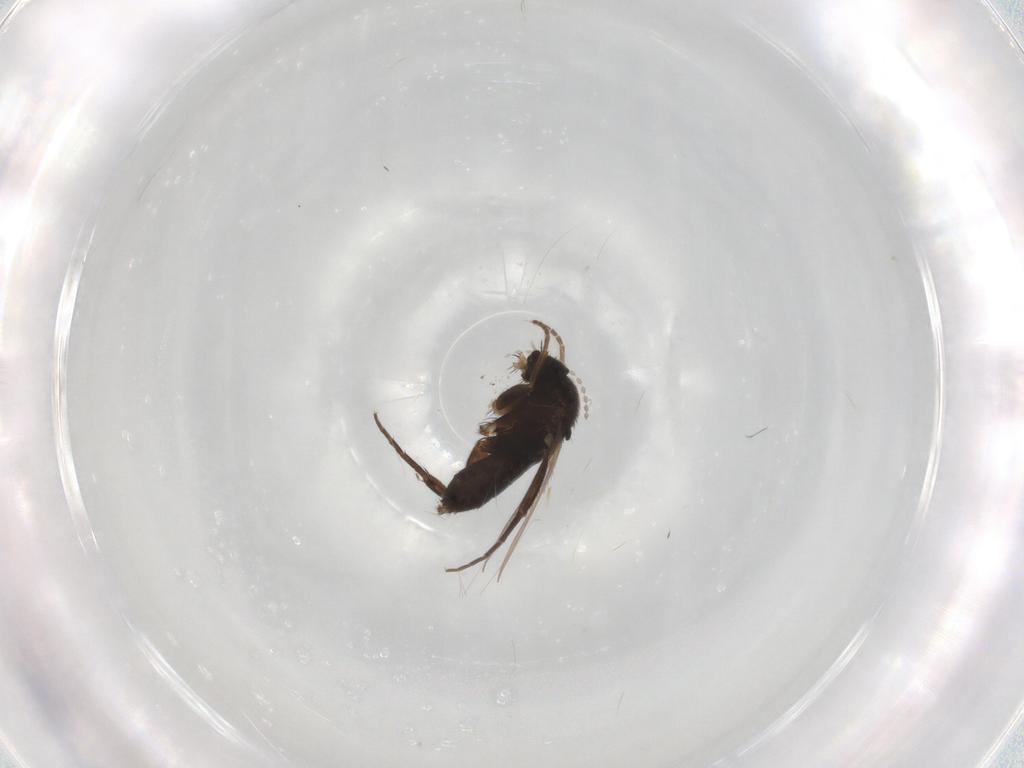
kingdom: Animalia
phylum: Arthropoda
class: Insecta
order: Diptera
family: Phoridae
